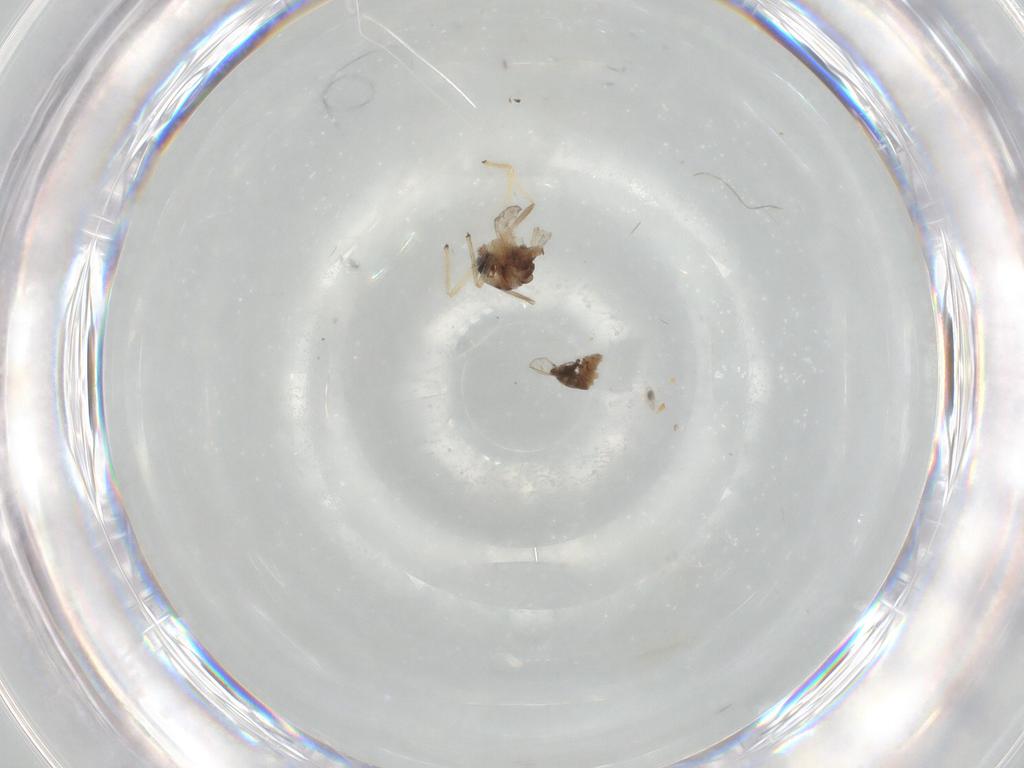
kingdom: Animalia
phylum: Arthropoda
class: Insecta
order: Diptera
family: Chironomidae
